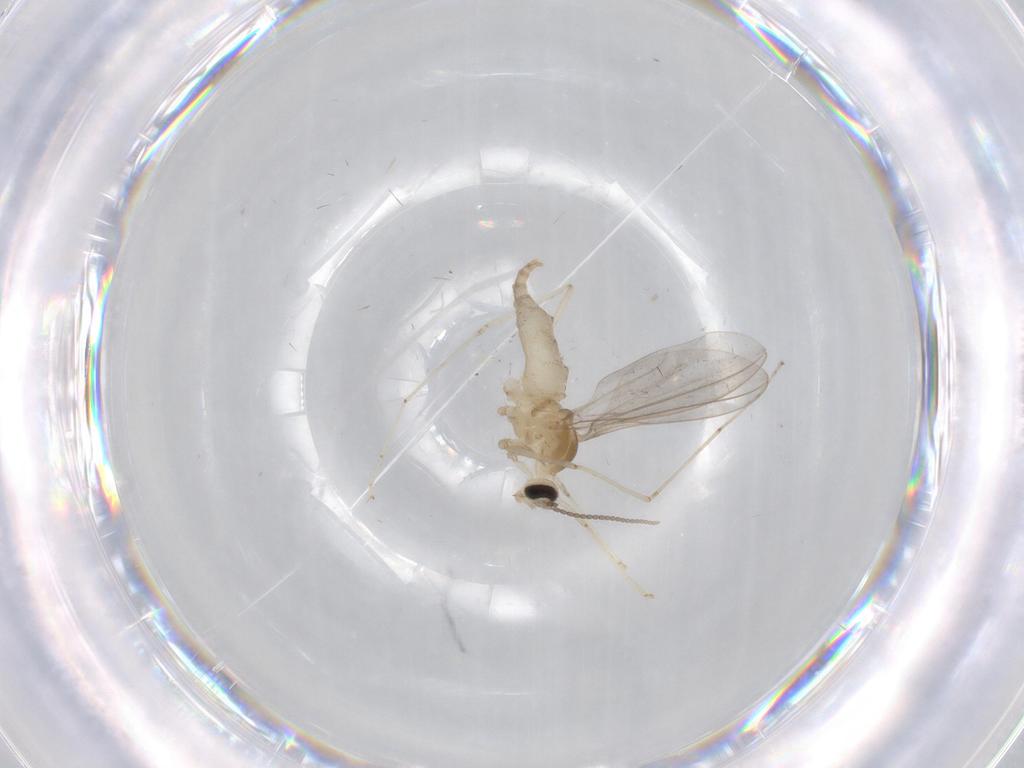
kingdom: Animalia
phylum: Arthropoda
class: Insecta
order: Diptera
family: Cecidomyiidae
